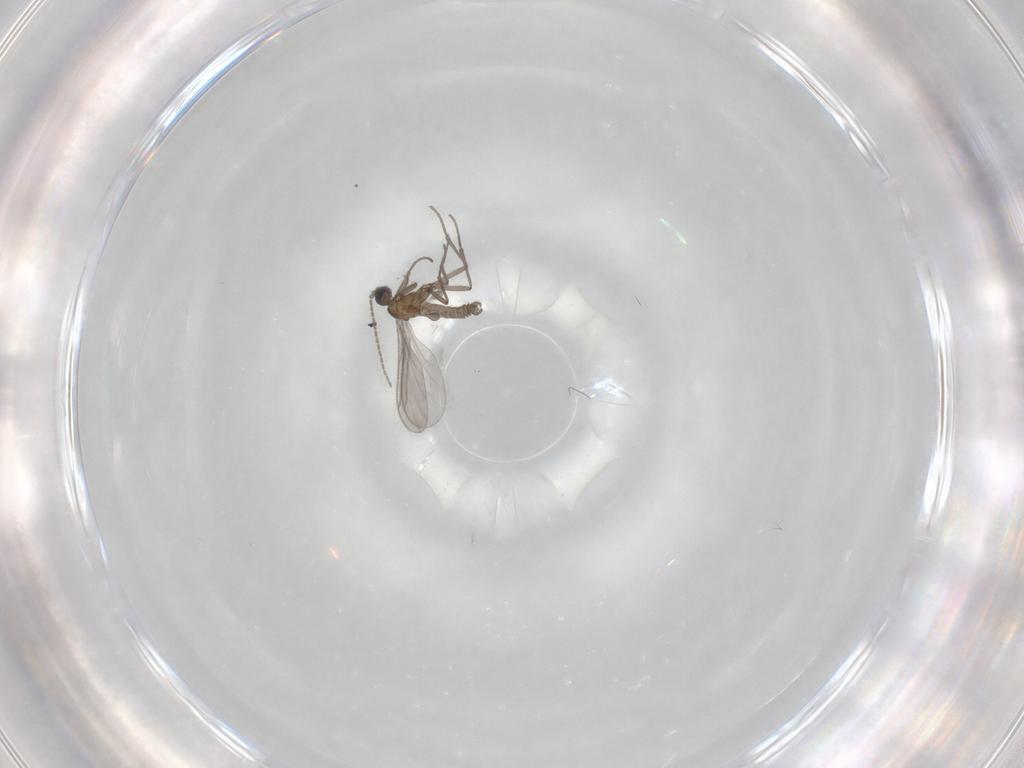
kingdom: Animalia
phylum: Arthropoda
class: Insecta
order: Diptera
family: Sciaridae
